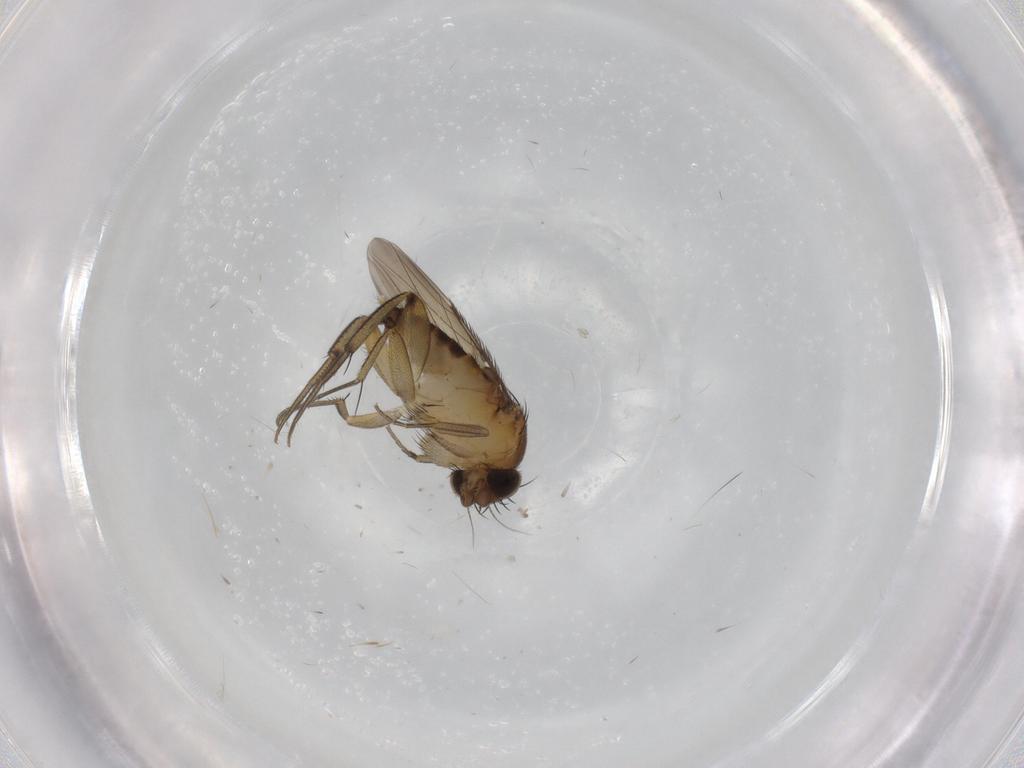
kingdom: Animalia
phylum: Arthropoda
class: Insecta
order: Diptera
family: Phoridae
